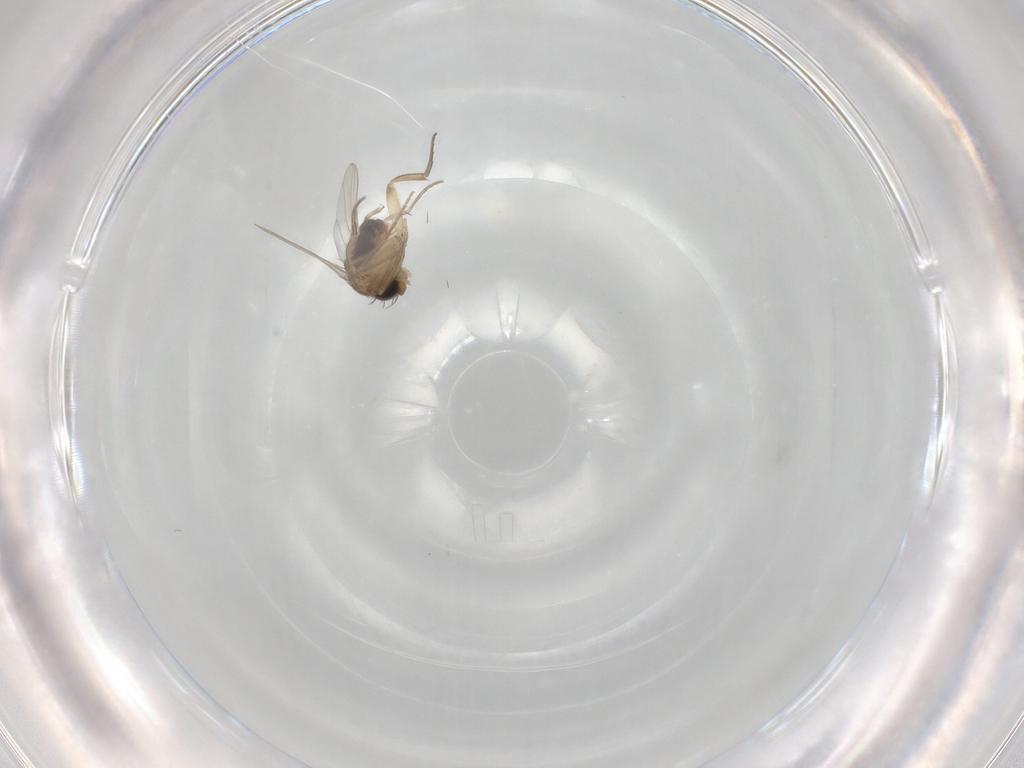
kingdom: Animalia
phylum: Arthropoda
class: Insecta
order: Diptera
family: Phoridae
